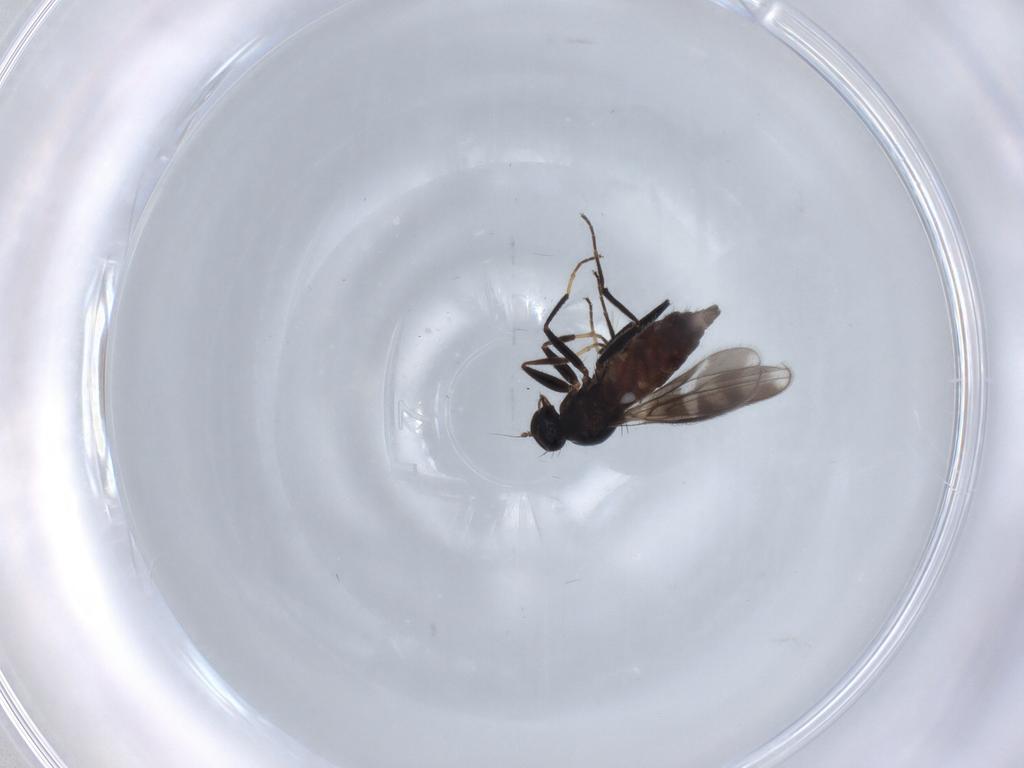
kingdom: Animalia
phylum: Arthropoda
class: Insecta
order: Diptera
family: Hybotidae
